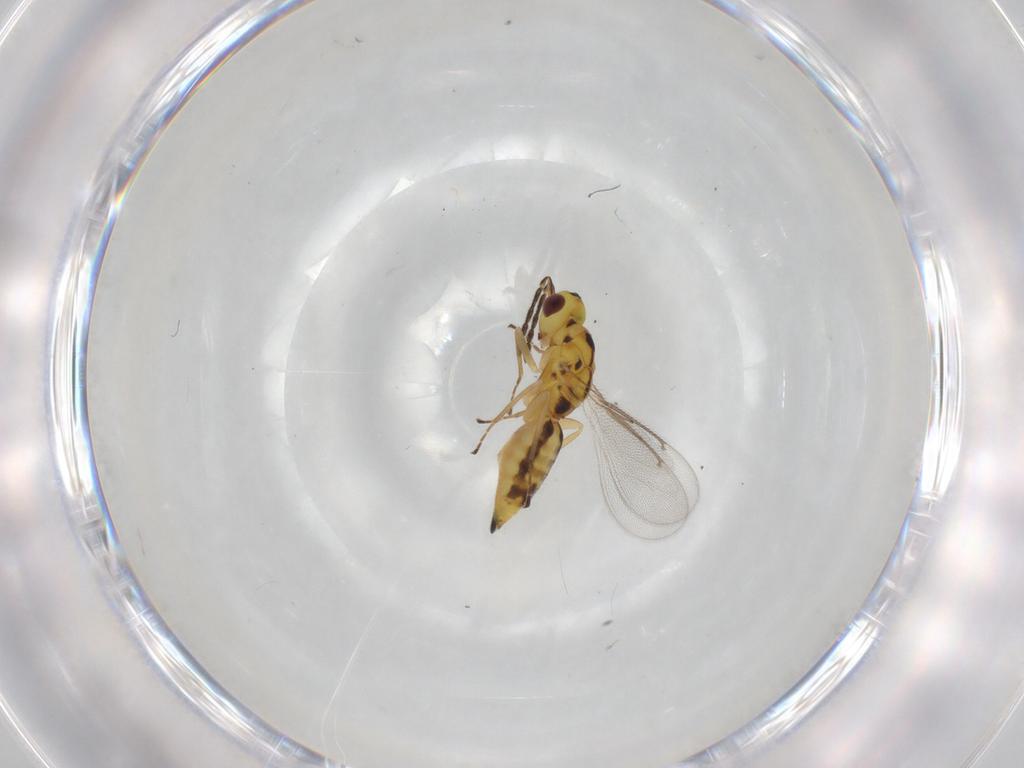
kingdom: Animalia
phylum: Arthropoda
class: Insecta
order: Hymenoptera
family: Eulophidae
